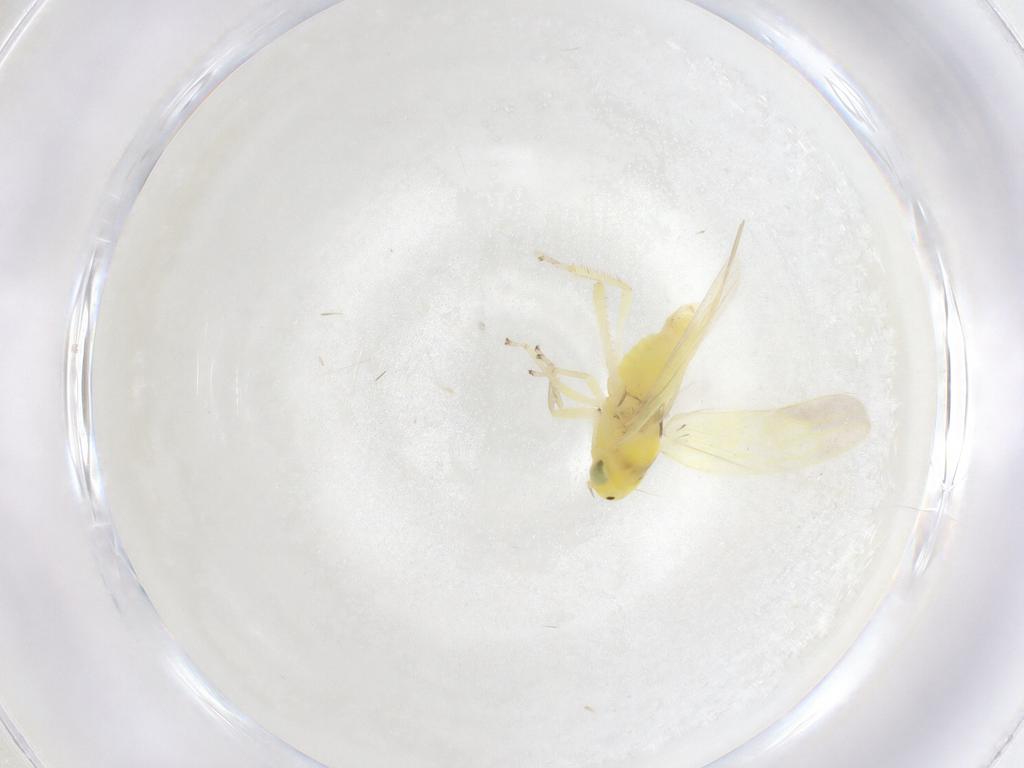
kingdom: Animalia
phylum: Arthropoda
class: Insecta
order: Hemiptera
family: Cicadellidae
